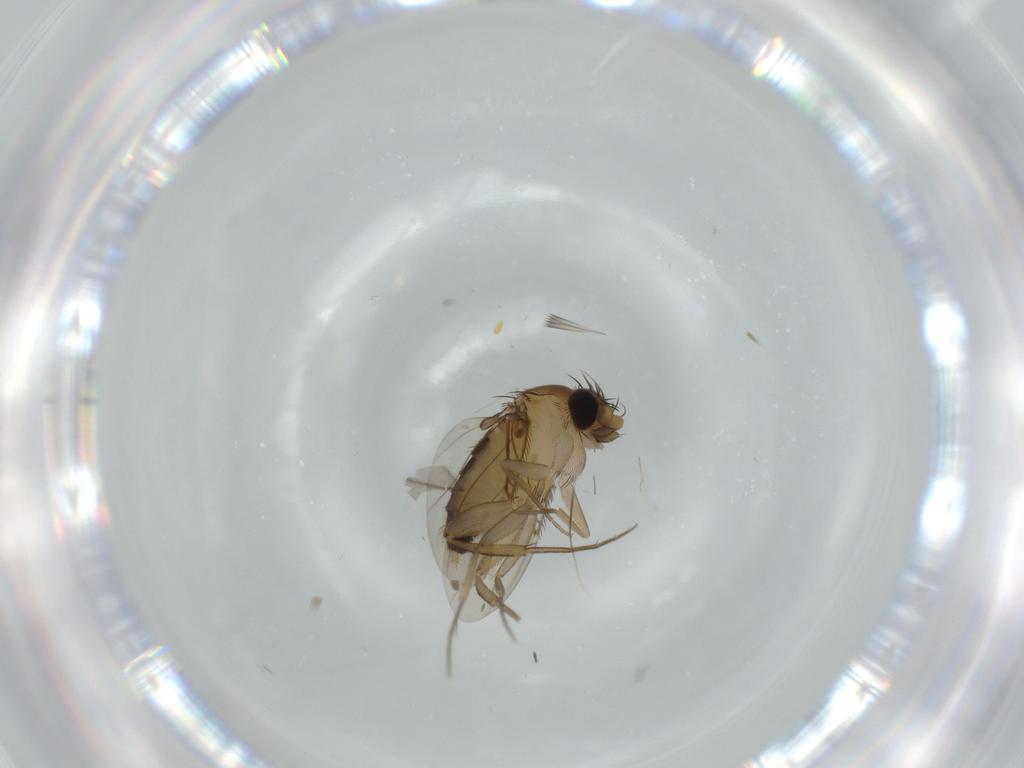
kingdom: Animalia
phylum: Arthropoda
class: Insecta
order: Diptera
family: Phoridae
